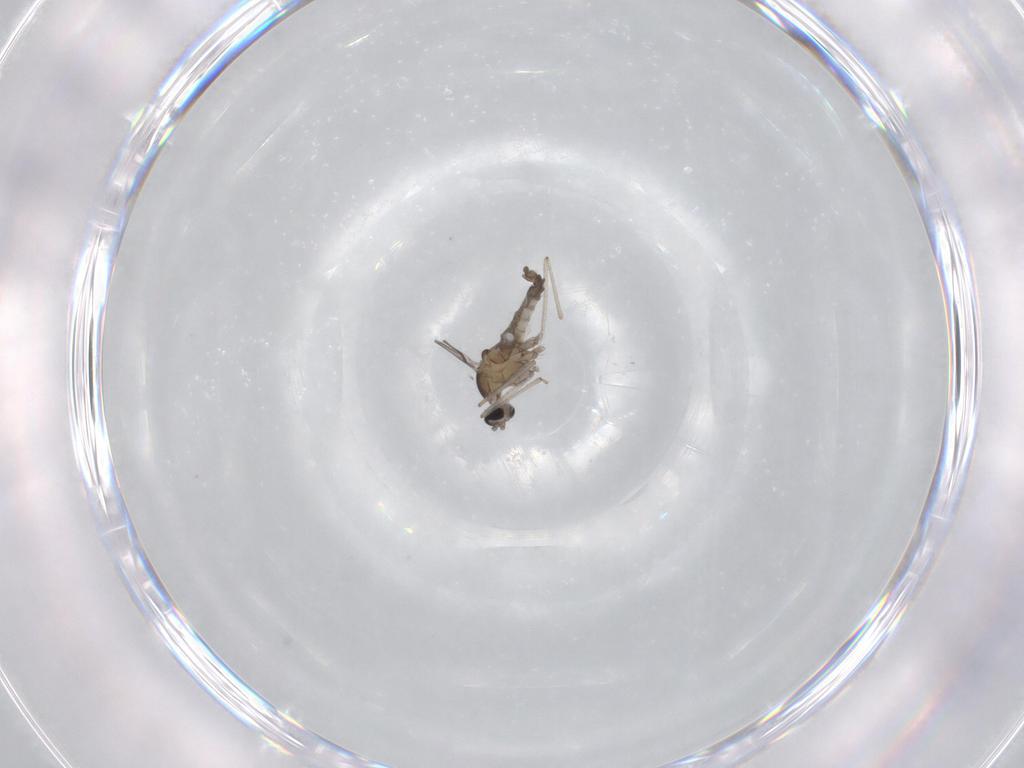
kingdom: Animalia
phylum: Arthropoda
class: Insecta
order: Diptera
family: Cecidomyiidae
